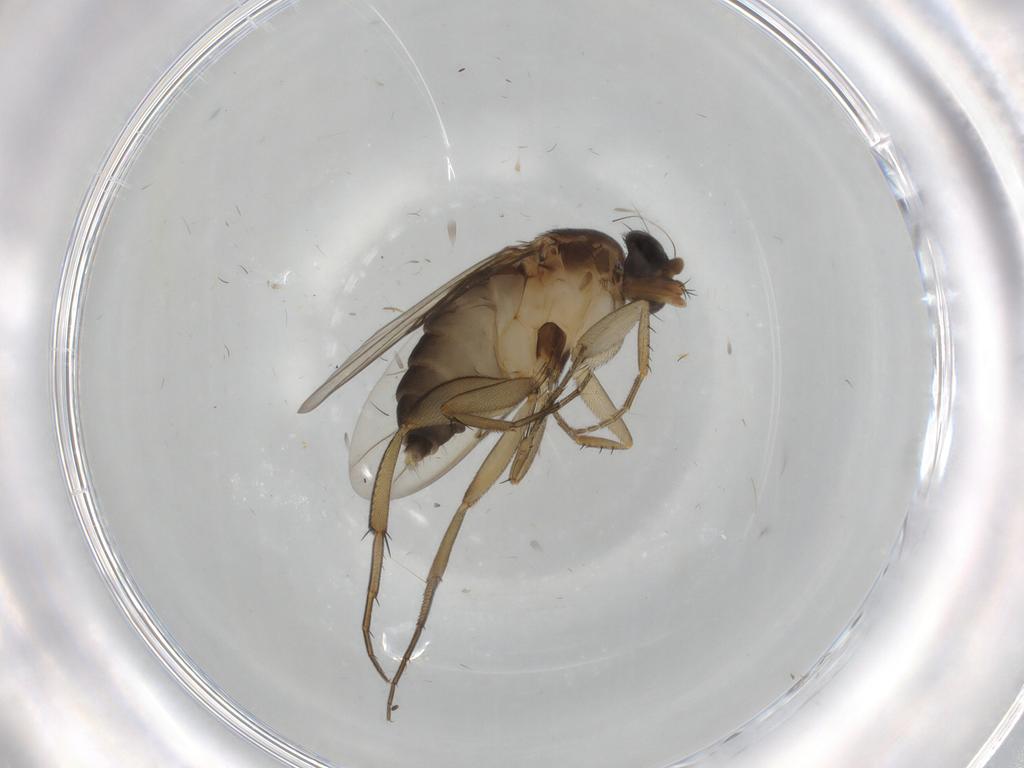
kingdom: Animalia
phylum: Arthropoda
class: Insecta
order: Diptera
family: Phoridae
